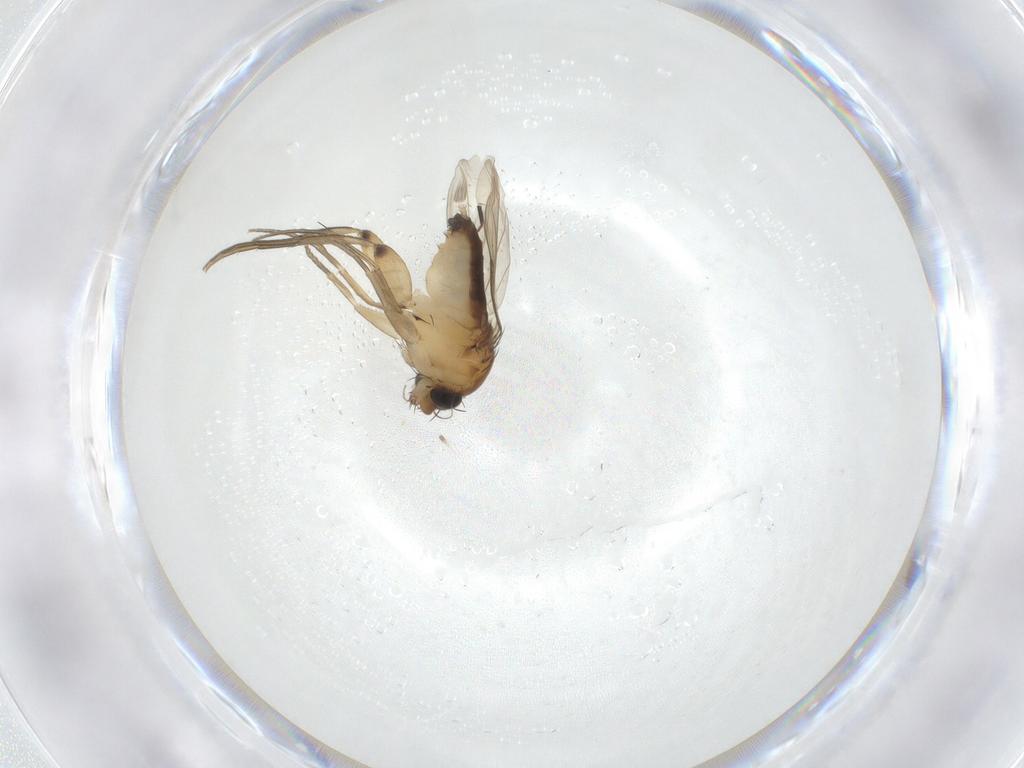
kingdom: Animalia
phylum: Arthropoda
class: Insecta
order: Diptera
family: Phoridae
